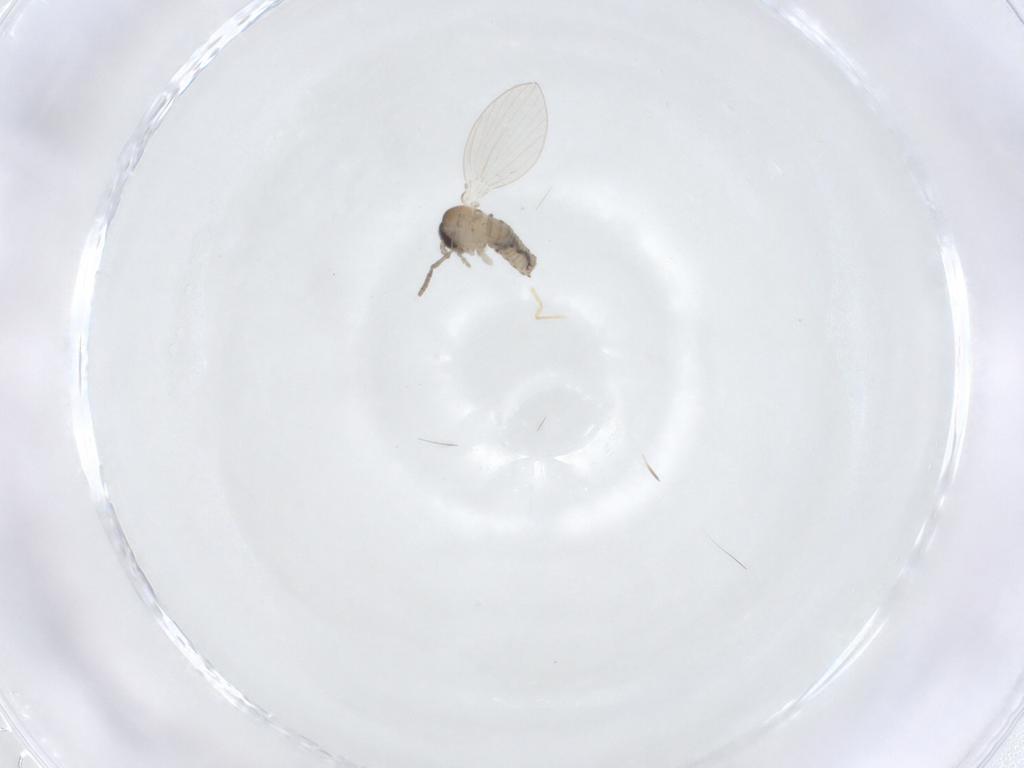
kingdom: Animalia
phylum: Arthropoda
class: Insecta
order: Diptera
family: Psychodidae
